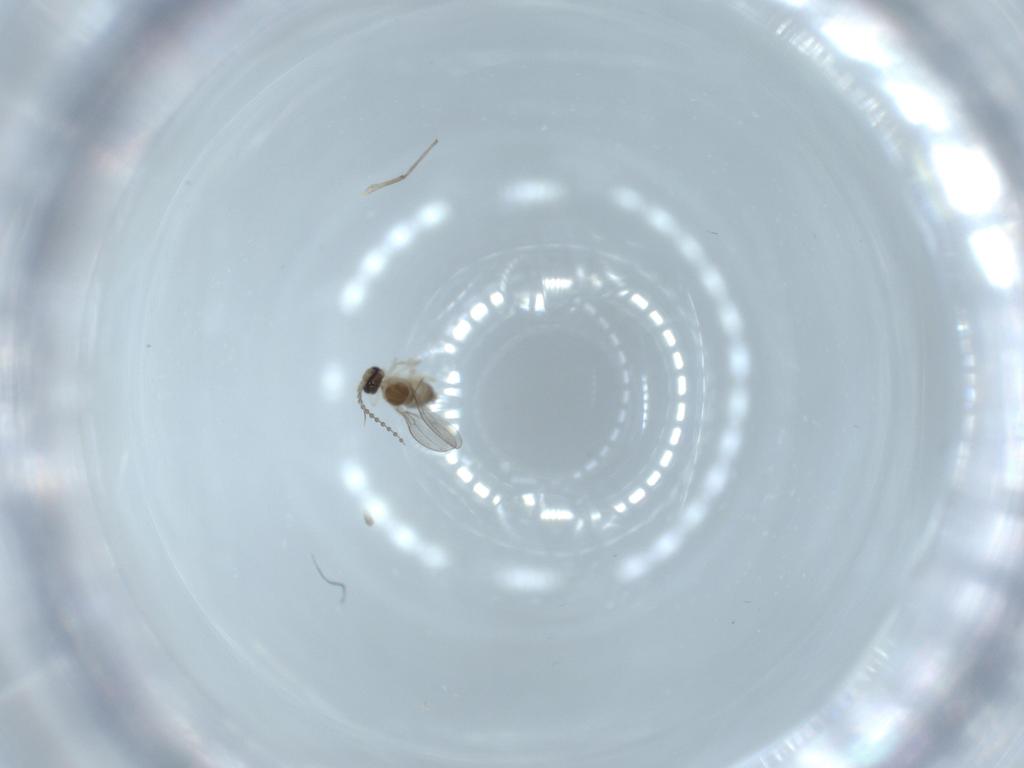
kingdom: Animalia
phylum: Arthropoda
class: Insecta
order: Diptera
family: Cecidomyiidae
